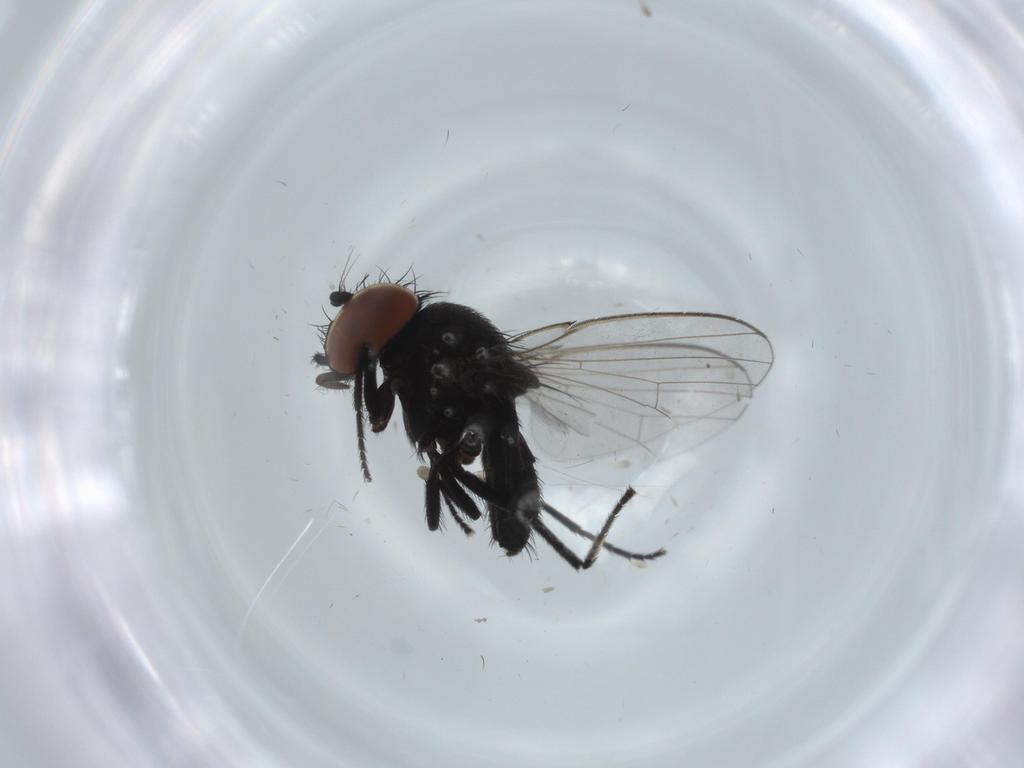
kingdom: Animalia
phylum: Arthropoda
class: Insecta
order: Diptera
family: Milichiidae
